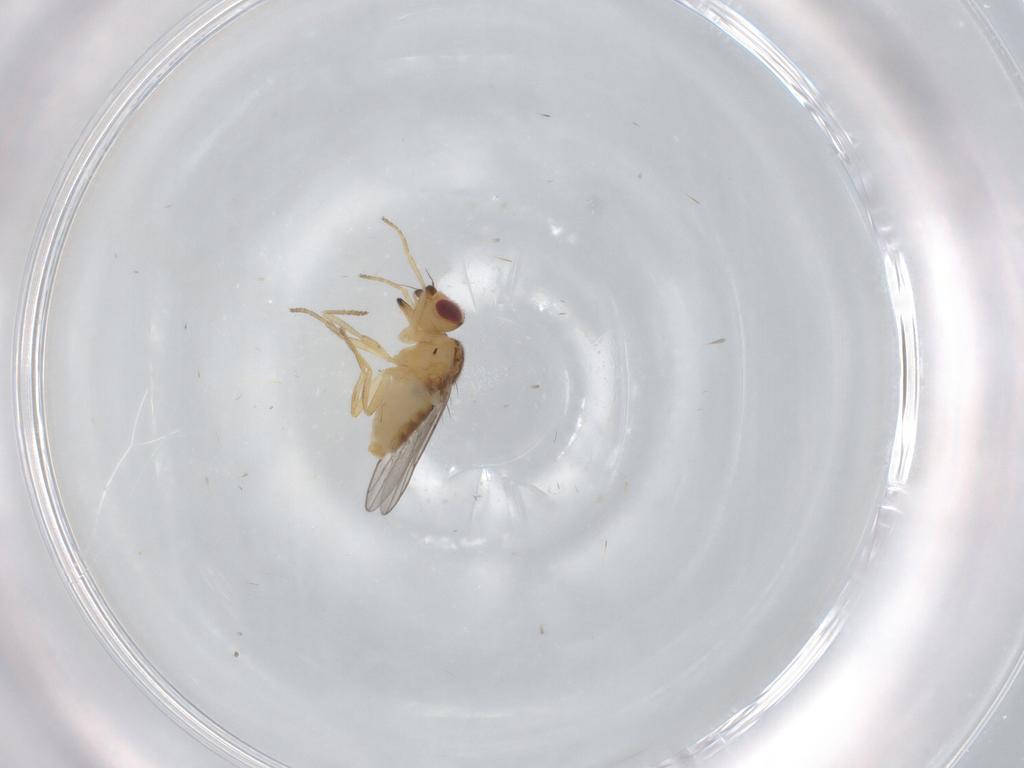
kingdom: Animalia
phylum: Arthropoda
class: Insecta
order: Diptera
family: Chloropidae
